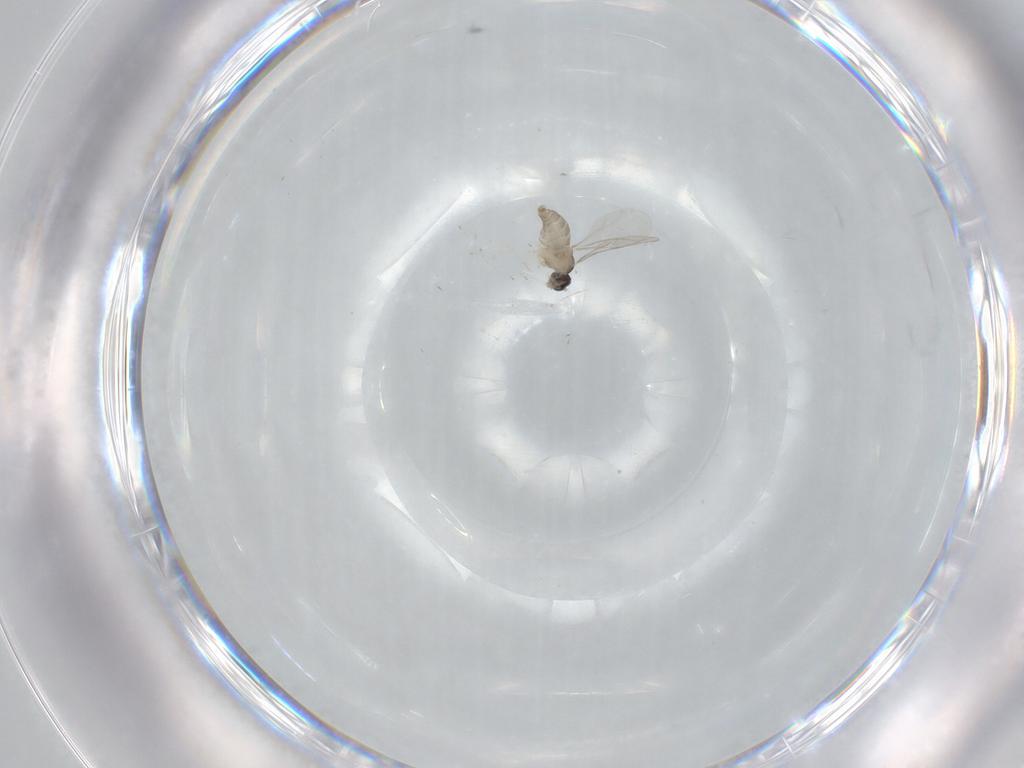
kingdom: Animalia
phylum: Arthropoda
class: Insecta
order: Diptera
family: Cecidomyiidae
